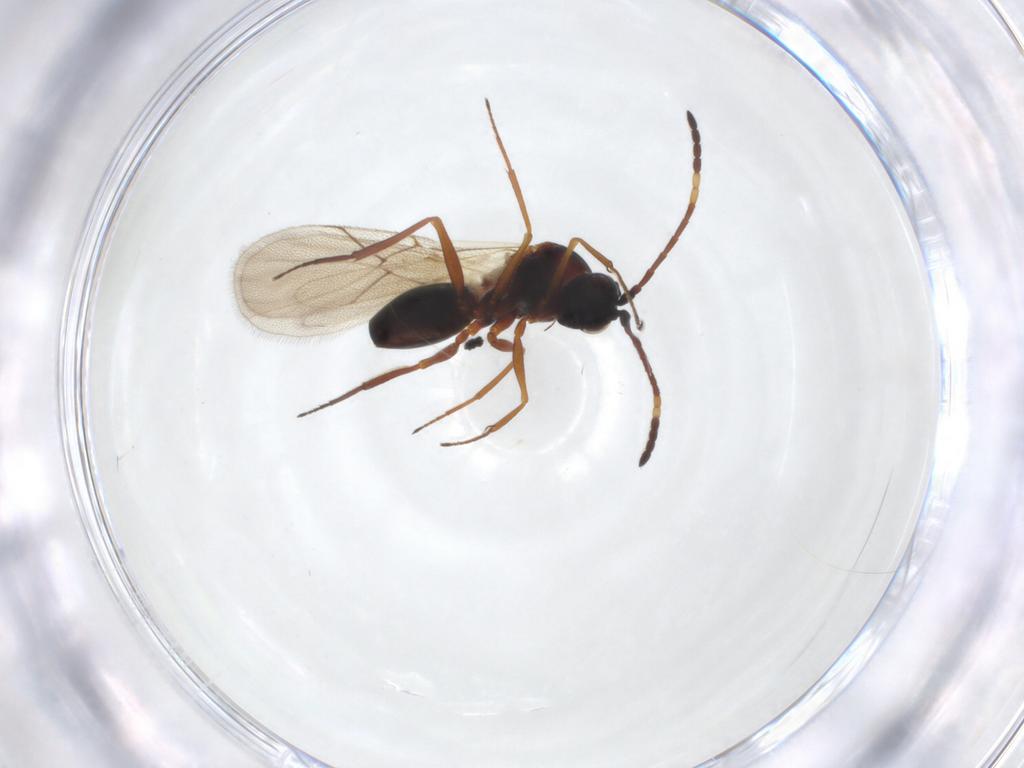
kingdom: Animalia
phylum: Arthropoda
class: Insecta
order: Hymenoptera
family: Figitidae
